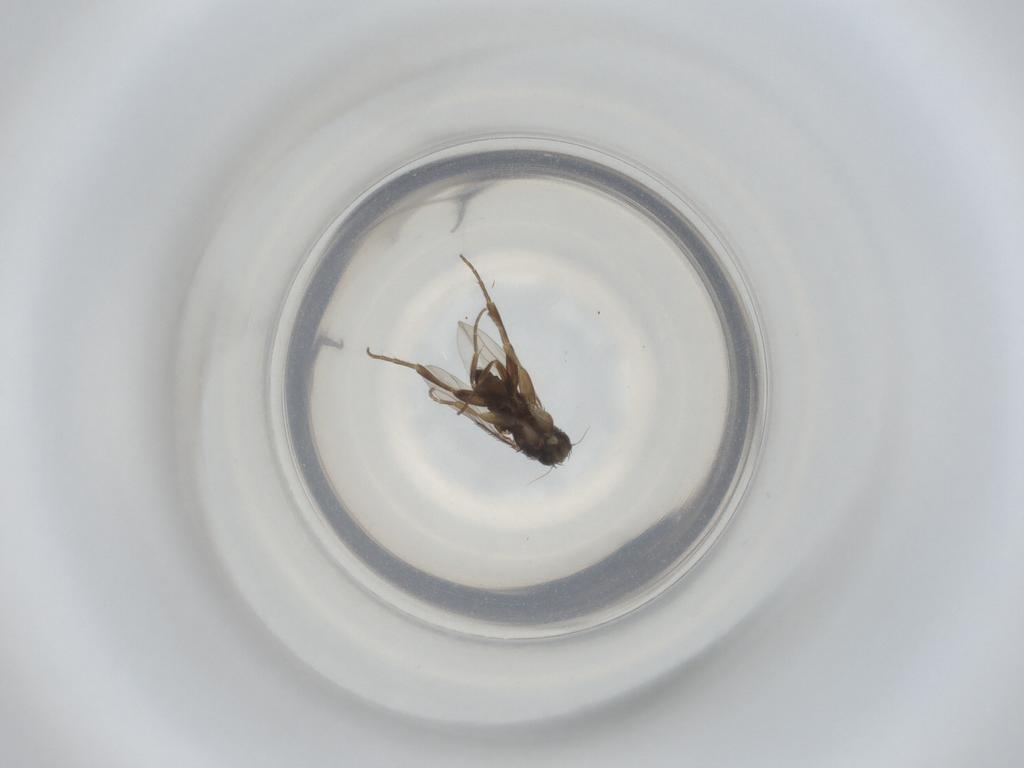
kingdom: Animalia
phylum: Arthropoda
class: Insecta
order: Diptera
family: Phoridae
